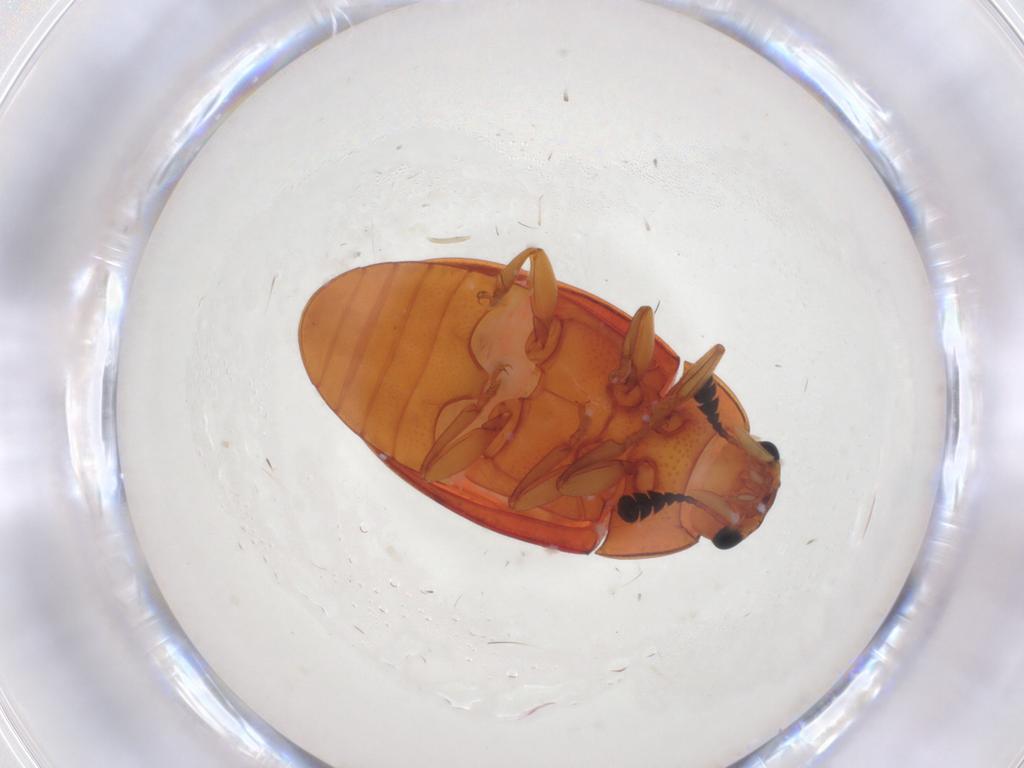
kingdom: Animalia
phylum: Arthropoda
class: Insecta
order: Coleoptera
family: Erotylidae
